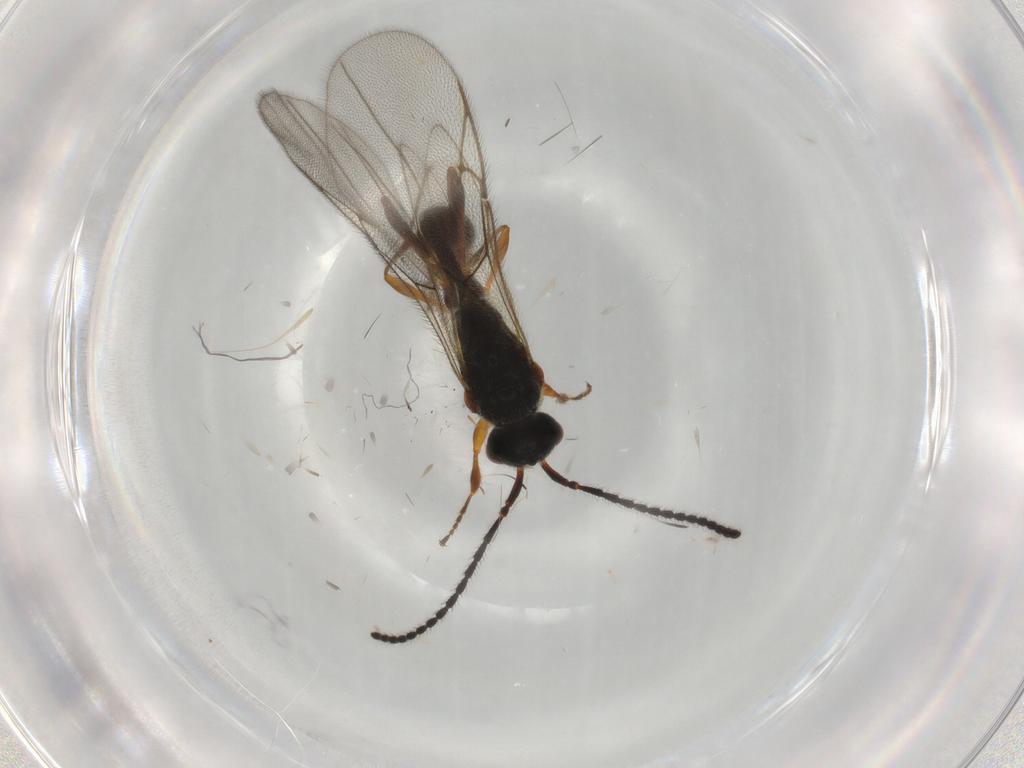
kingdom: Animalia
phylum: Arthropoda
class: Insecta
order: Hymenoptera
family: Diapriidae
